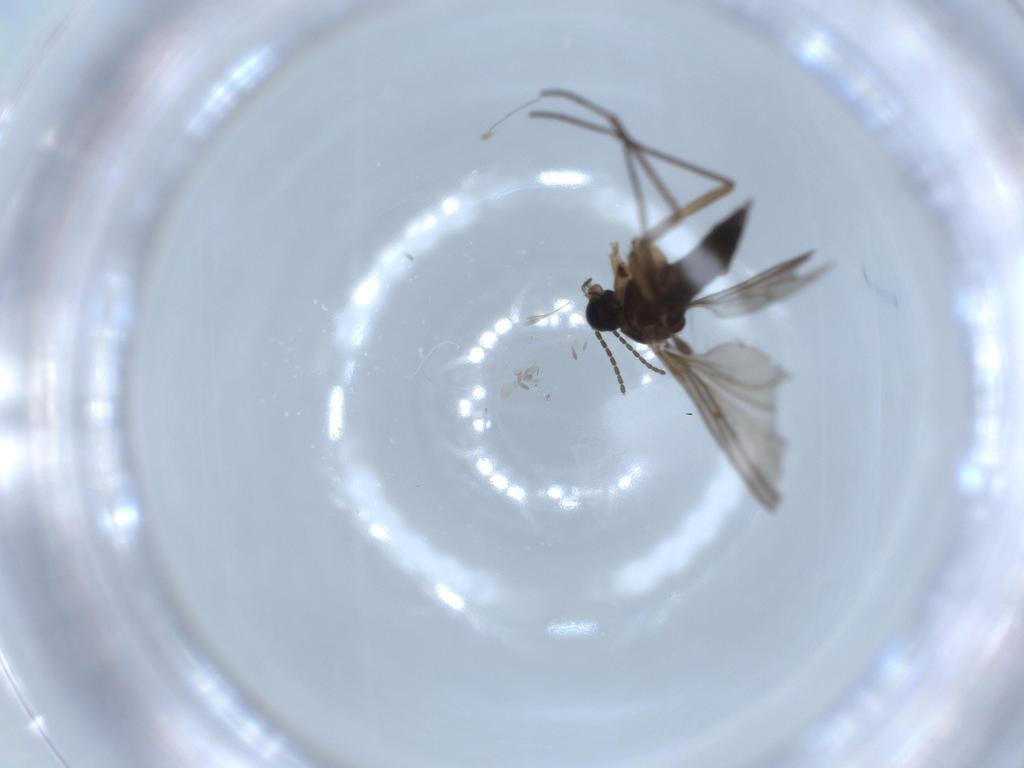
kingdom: Animalia
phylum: Arthropoda
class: Insecta
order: Diptera
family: Sciaridae
